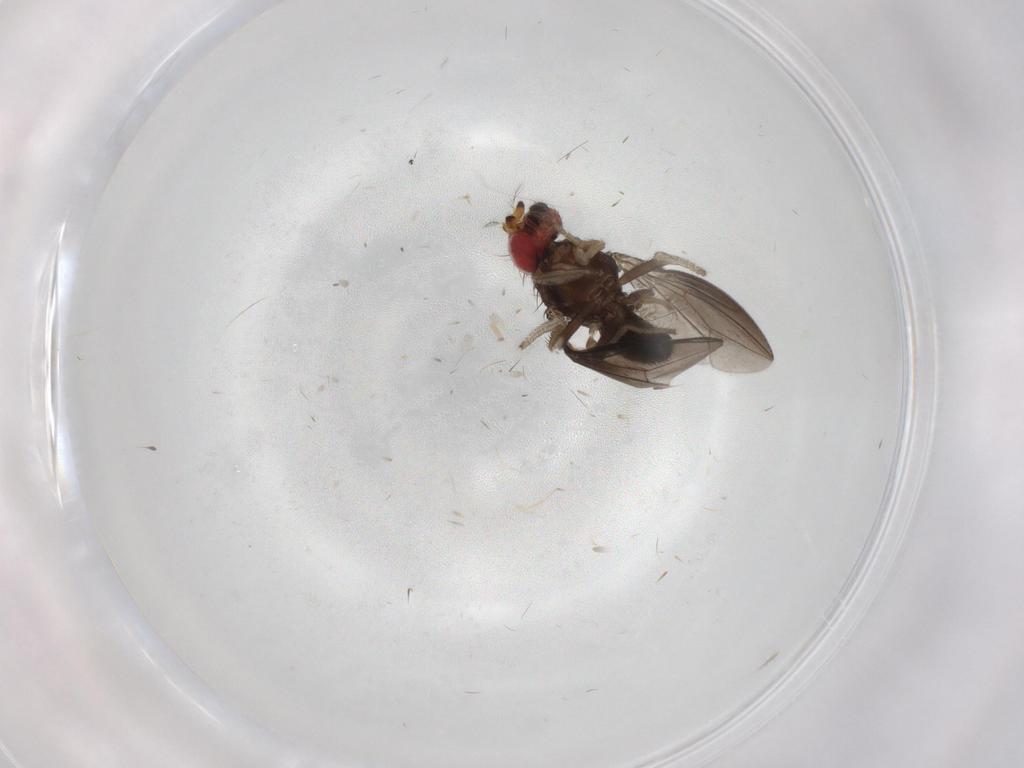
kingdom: Animalia
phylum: Arthropoda
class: Insecta
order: Diptera
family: Drosophilidae
